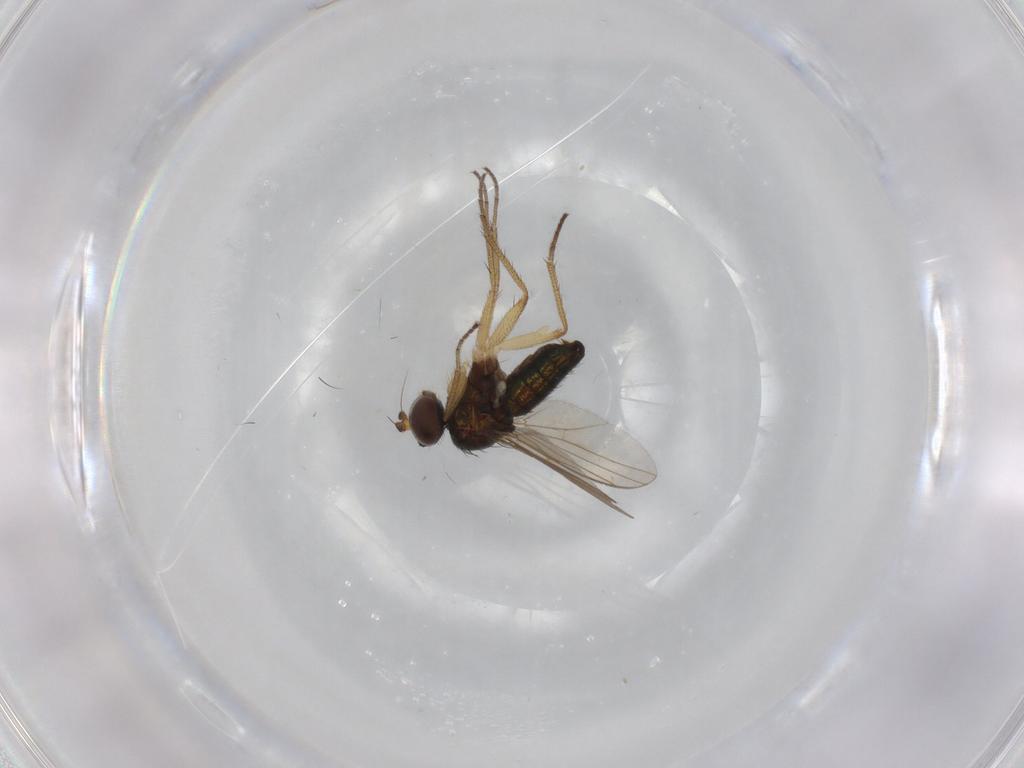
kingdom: Animalia
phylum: Arthropoda
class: Insecta
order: Diptera
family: Dolichopodidae
